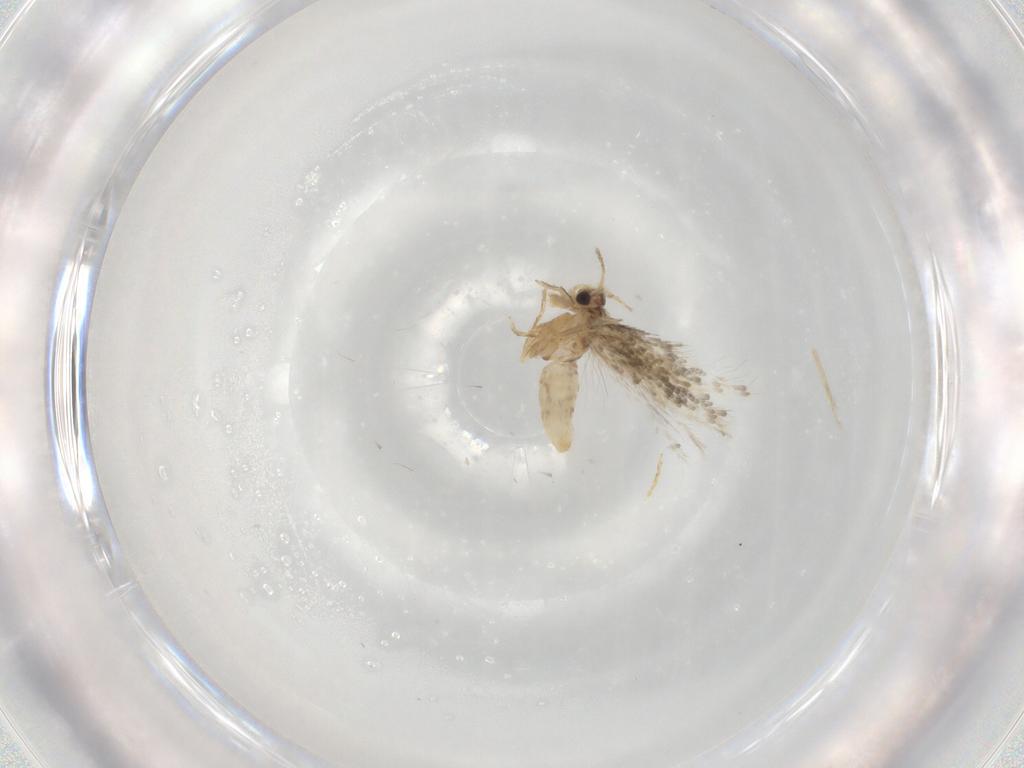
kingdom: Animalia
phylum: Arthropoda
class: Insecta
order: Lepidoptera
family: Nepticulidae
